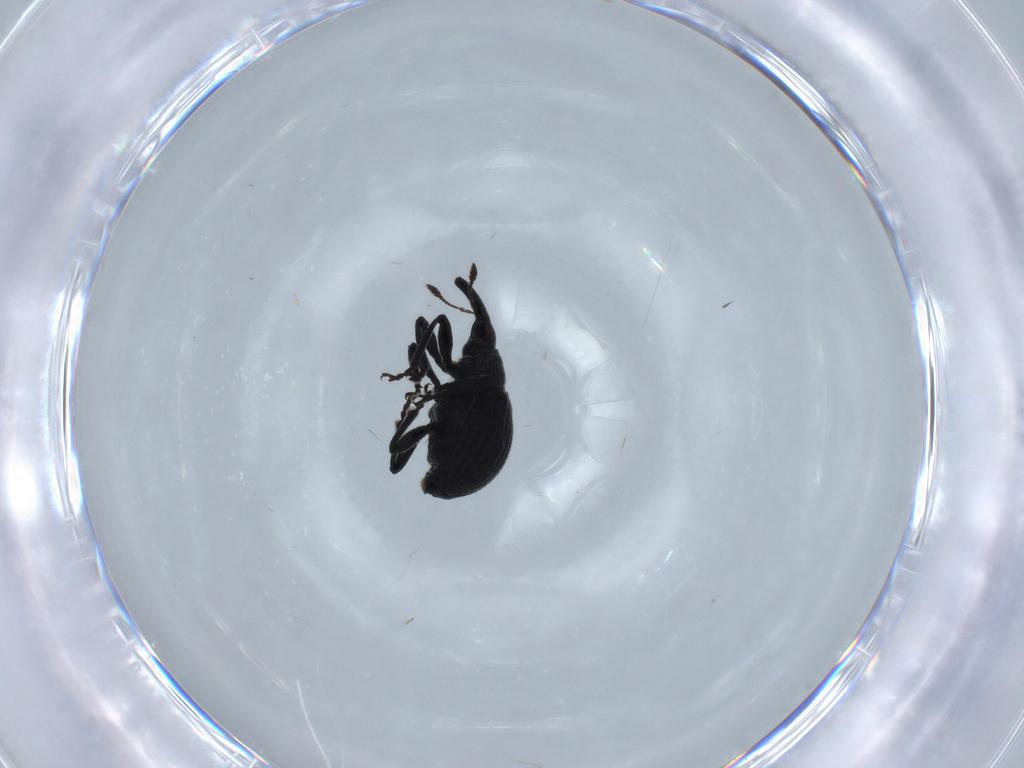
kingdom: Animalia
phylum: Arthropoda
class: Insecta
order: Coleoptera
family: Brentidae
